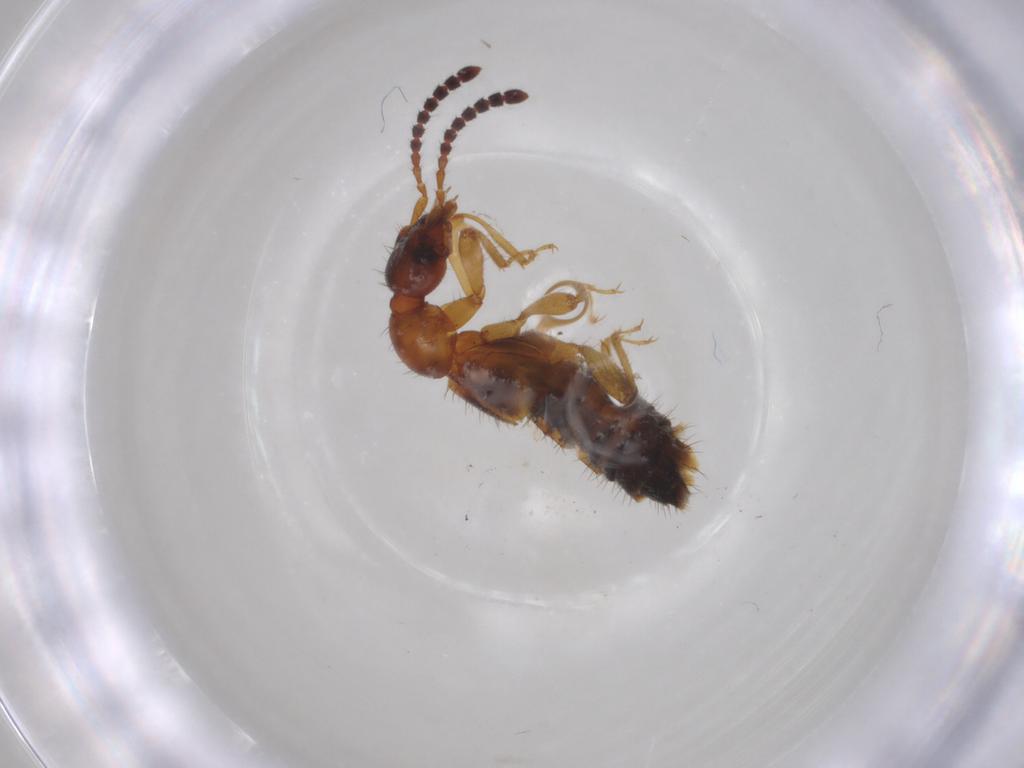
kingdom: Animalia
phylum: Arthropoda
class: Insecta
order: Coleoptera
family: Staphylinidae
